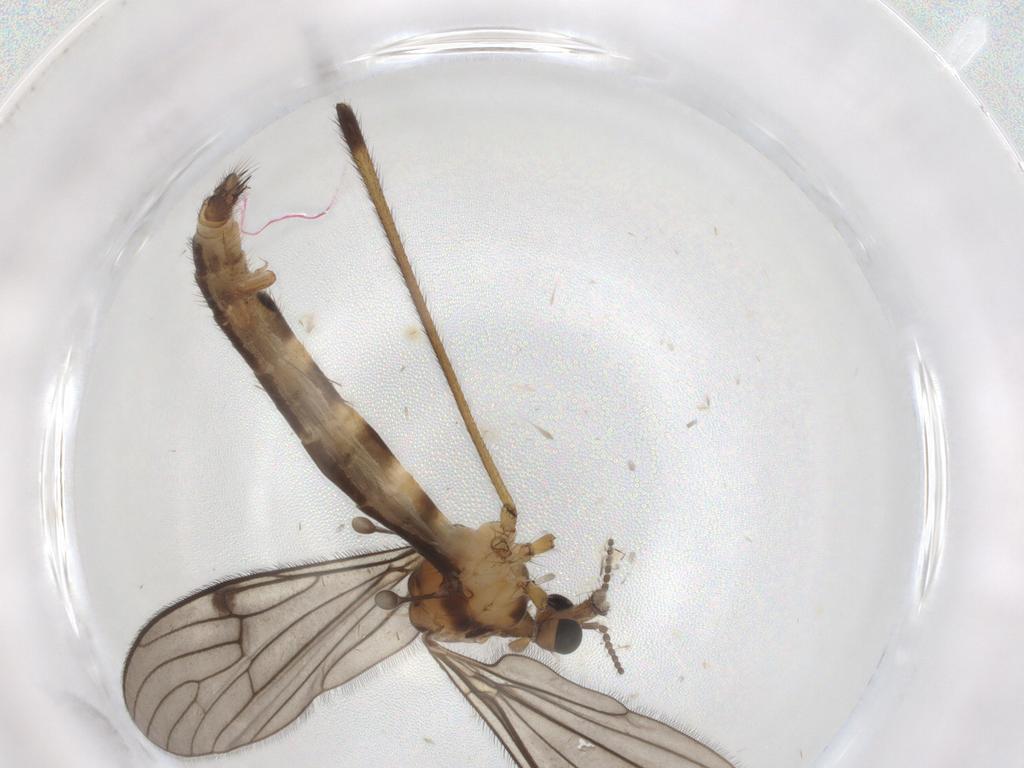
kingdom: Animalia
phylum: Arthropoda
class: Insecta
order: Diptera
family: Limoniidae
